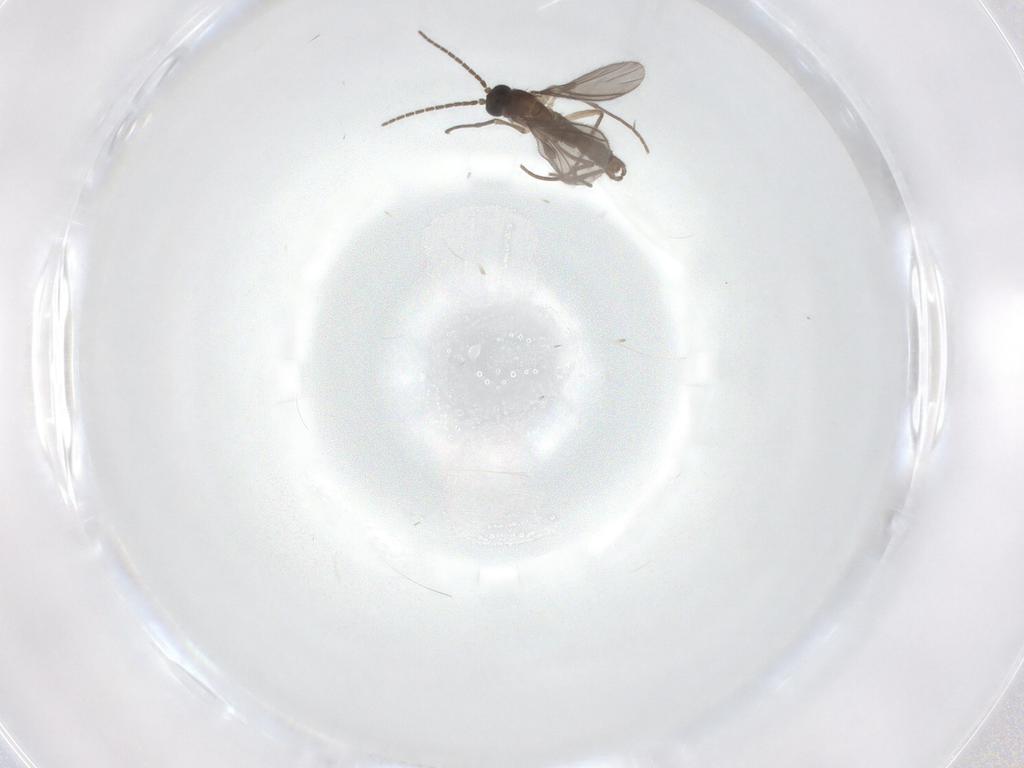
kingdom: Animalia
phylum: Arthropoda
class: Insecta
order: Diptera
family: Sciaridae
